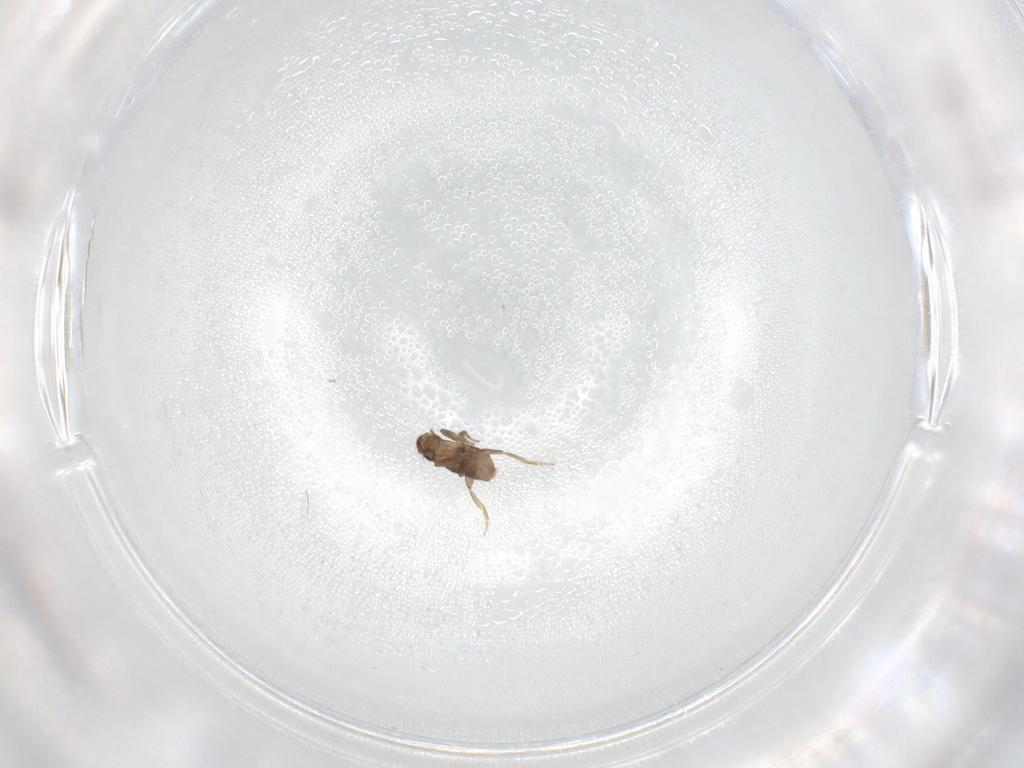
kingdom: Animalia
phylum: Arthropoda
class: Insecta
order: Diptera
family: Cecidomyiidae
